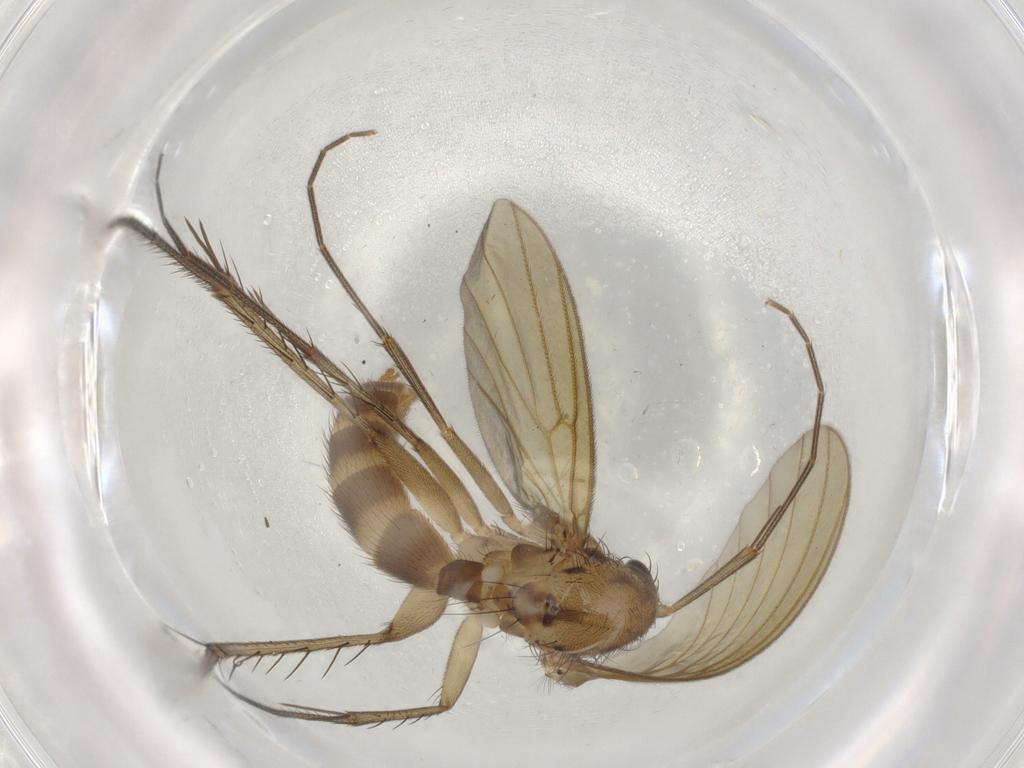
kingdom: Animalia
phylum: Arthropoda
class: Insecta
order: Diptera
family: Mycetophilidae
